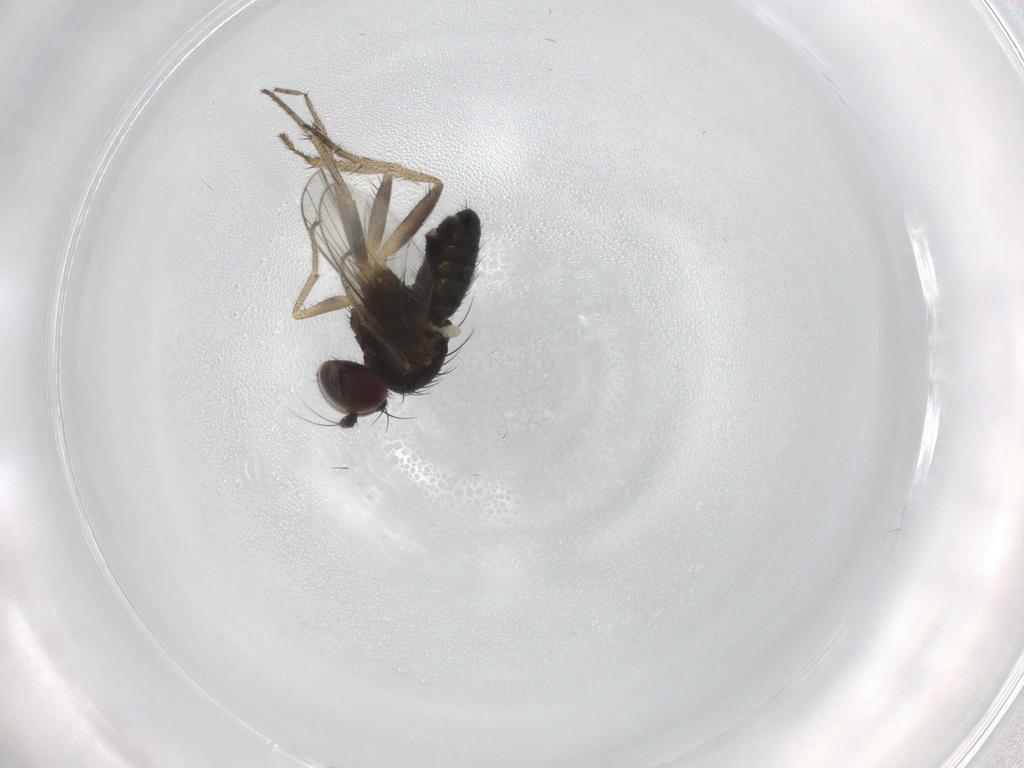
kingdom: Animalia
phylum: Arthropoda
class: Insecta
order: Diptera
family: Dolichopodidae
